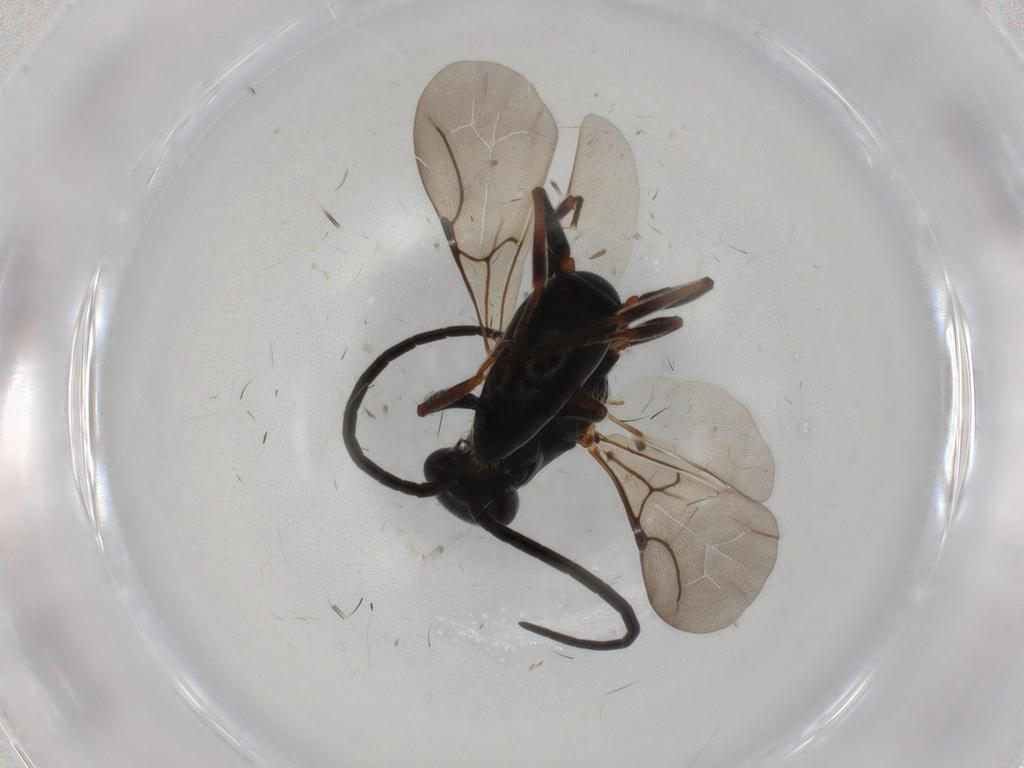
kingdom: Animalia
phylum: Arthropoda
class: Insecta
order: Hymenoptera
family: Bethylidae
